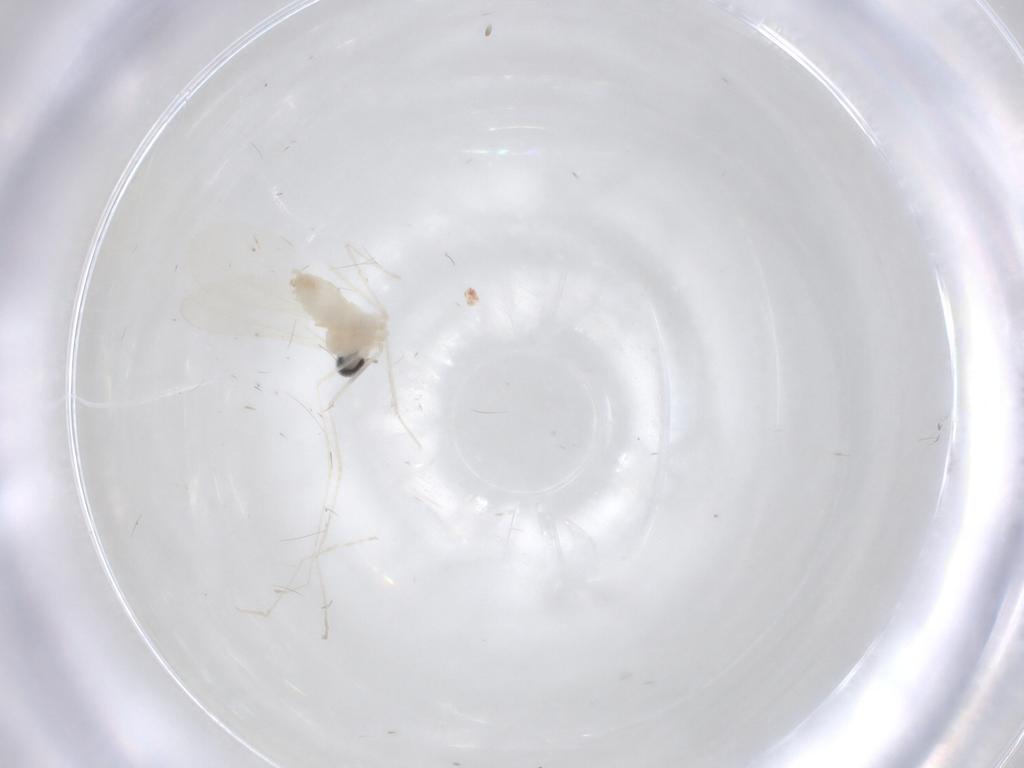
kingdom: Animalia
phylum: Arthropoda
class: Insecta
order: Diptera
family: Cecidomyiidae
